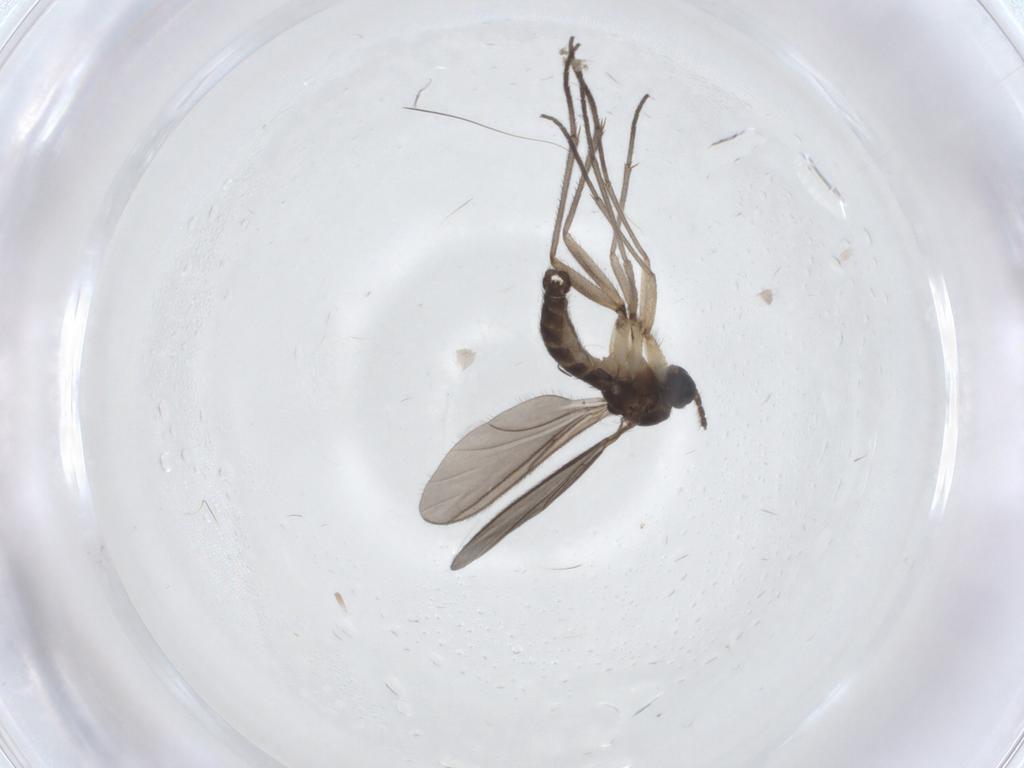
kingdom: Animalia
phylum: Arthropoda
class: Insecta
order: Diptera
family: Sciaridae
